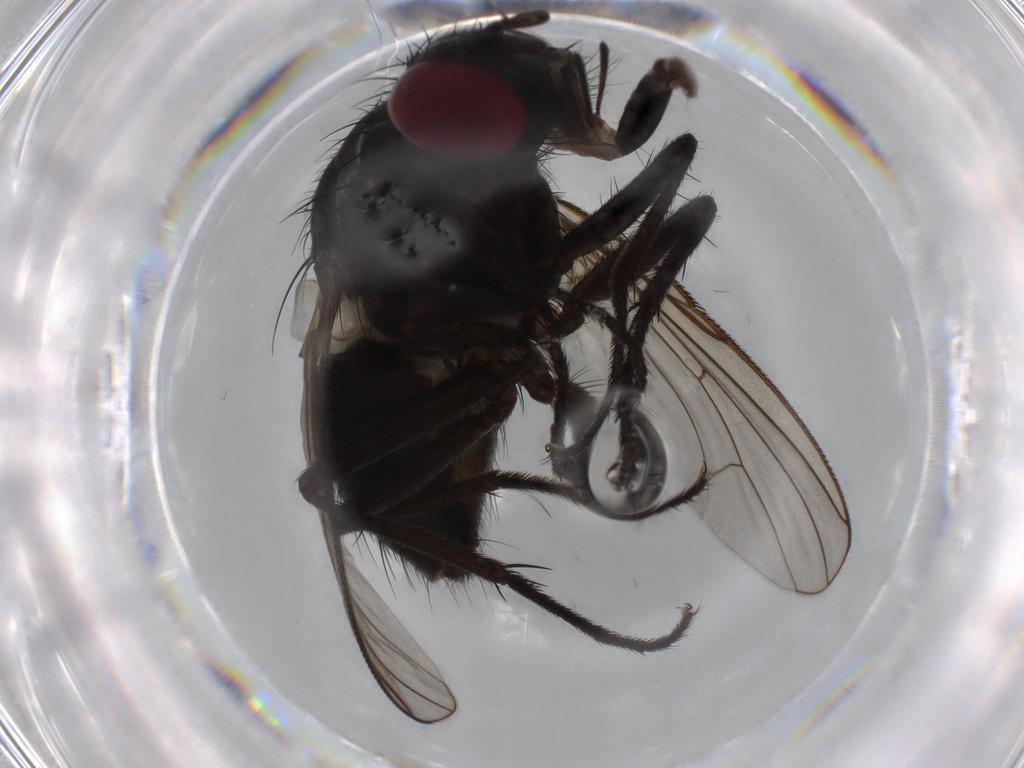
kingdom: Animalia
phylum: Arthropoda
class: Insecta
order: Diptera
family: Muscidae
